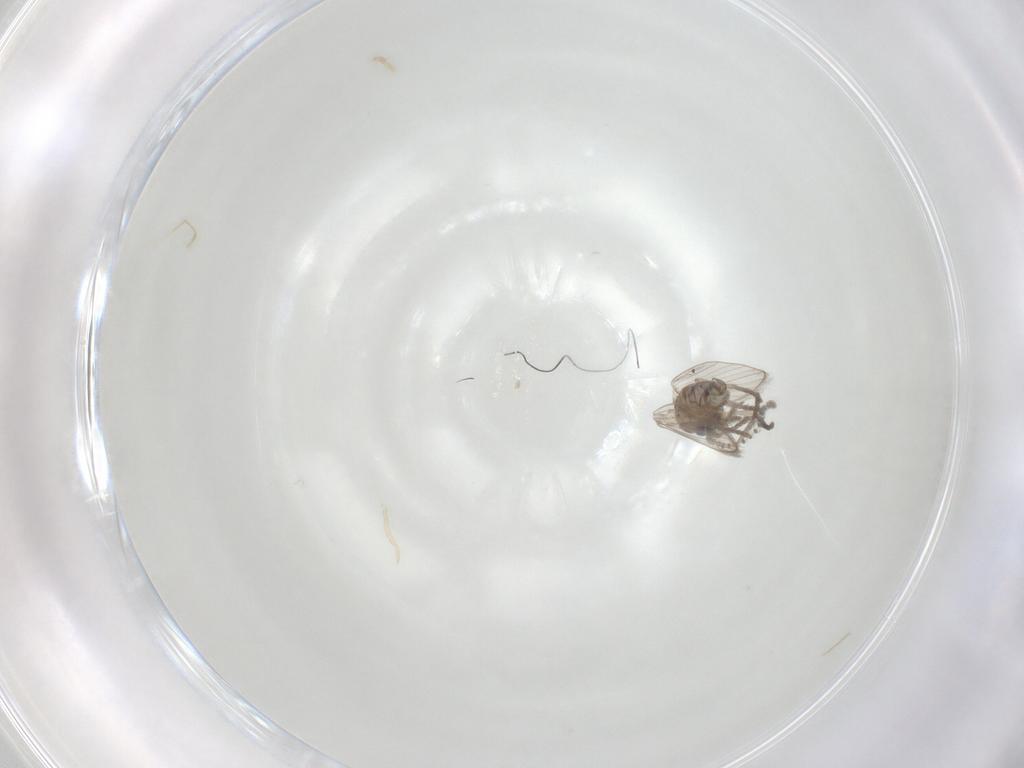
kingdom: Animalia
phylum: Arthropoda
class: Insecta
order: Diptera
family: Psychodidae
